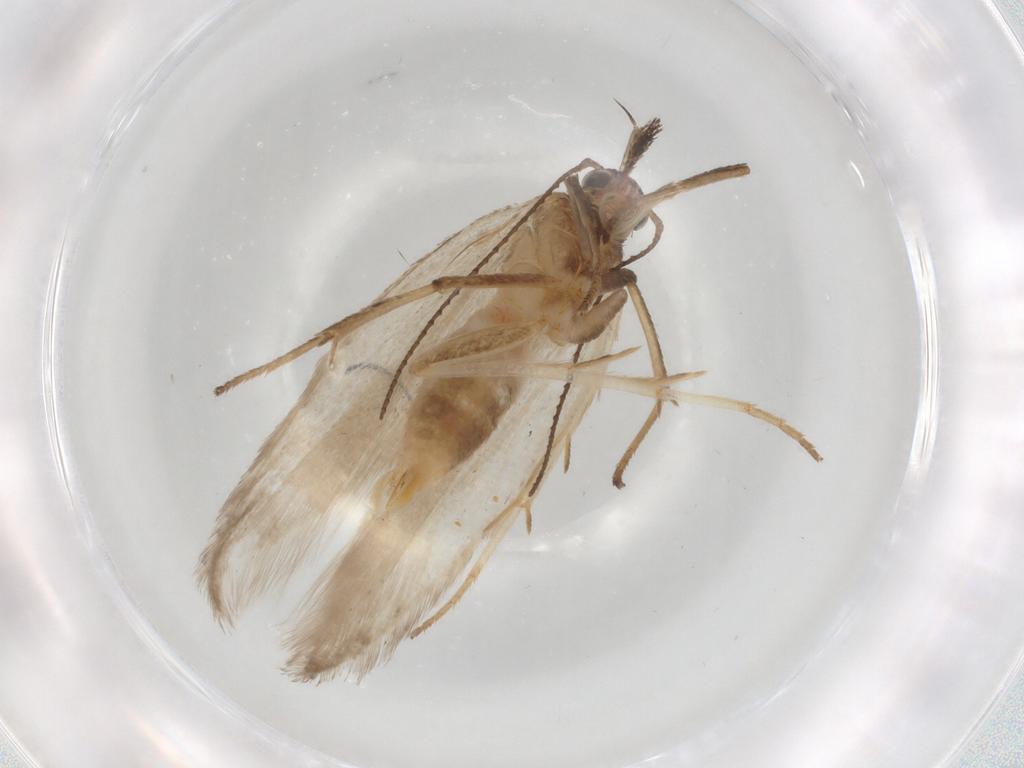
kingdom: Animalia
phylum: Arthropoda
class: Insecta
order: Lepidoptera
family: Gelechiidae
